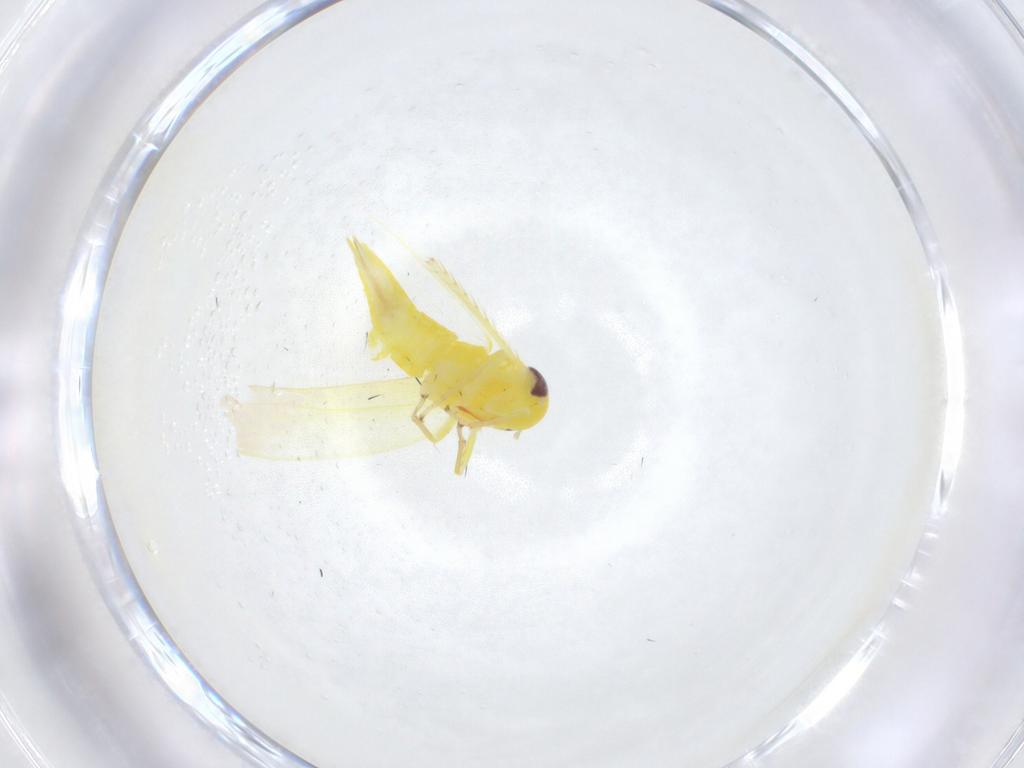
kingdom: Animalia
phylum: Arthropoda
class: Insecta
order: Hemiptera
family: Cicadellidae
